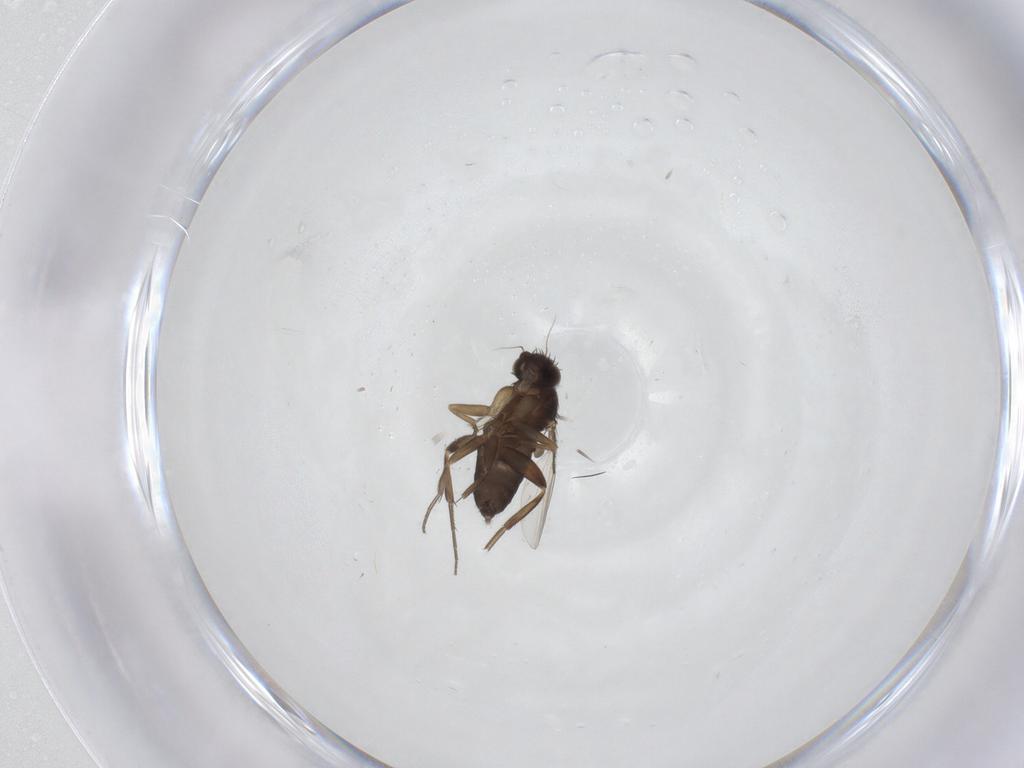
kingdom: Animalia
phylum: Arthropoda
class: Insecta
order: Diptera
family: Phoridae
